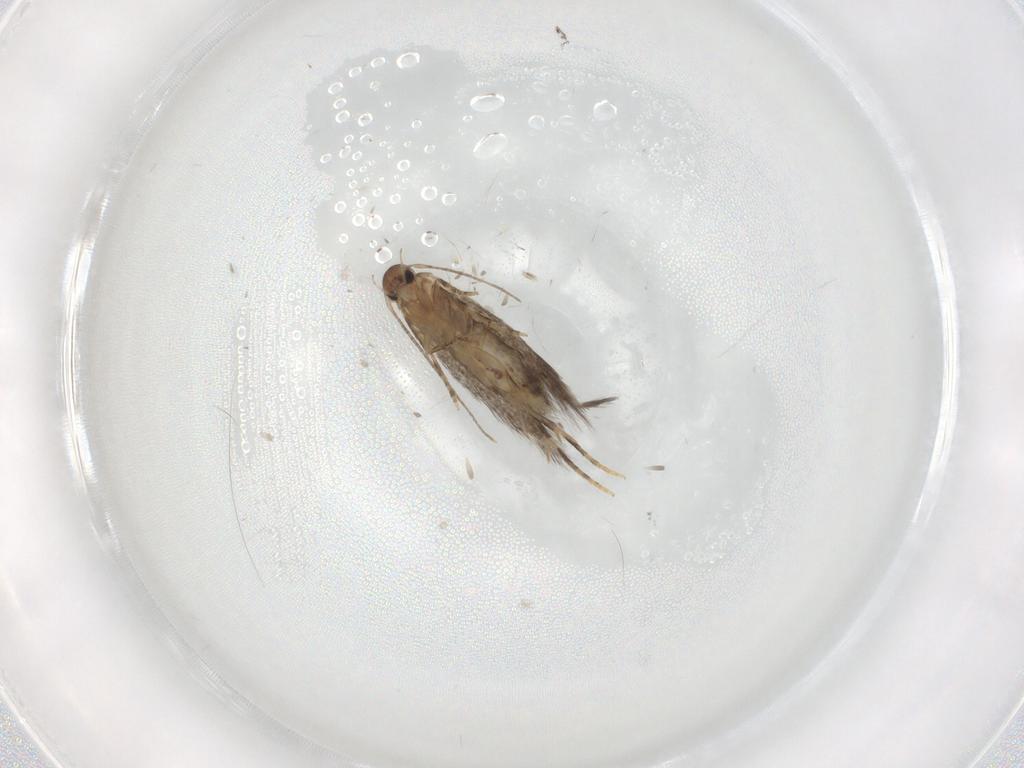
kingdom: Animalia
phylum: Arthropoda
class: Insecta
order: Lepidoptera
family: Elachistidae
